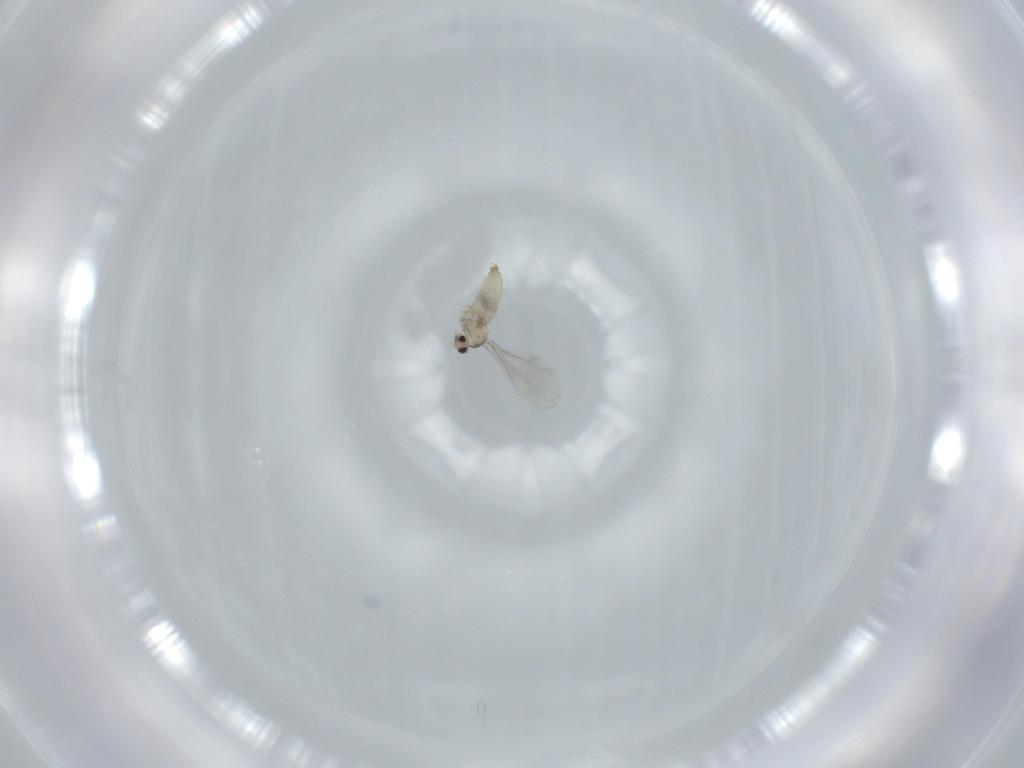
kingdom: Animalia
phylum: Arthropoda
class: Insecta
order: Diptera
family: Cecidomyiidae
